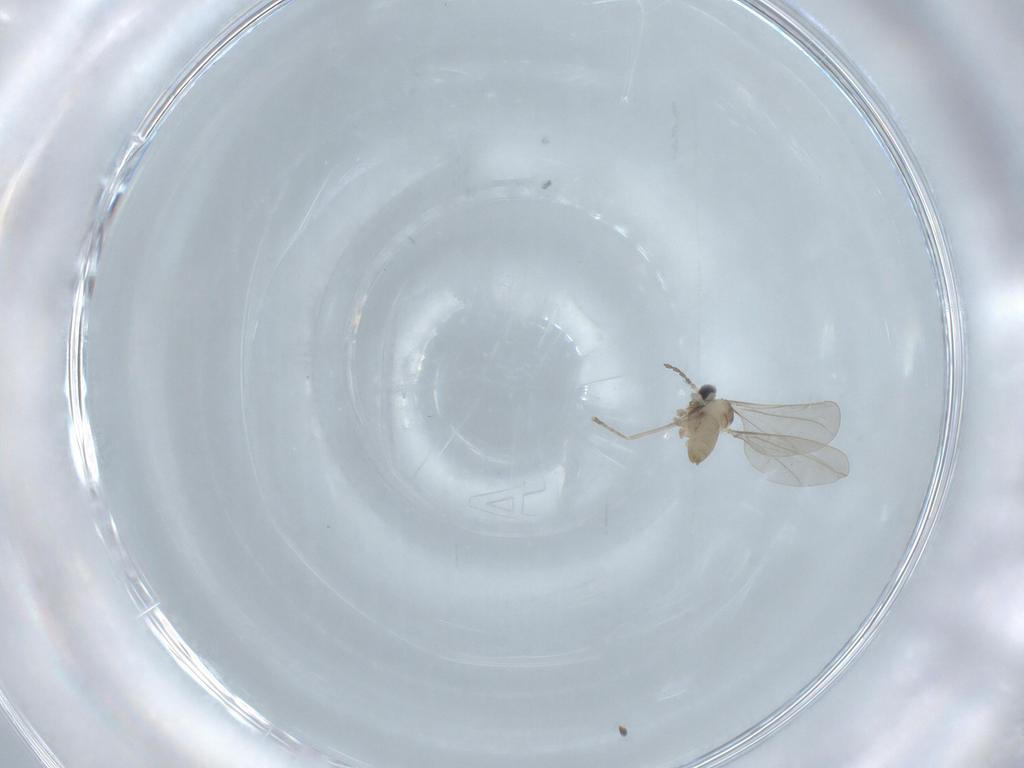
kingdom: Animalia
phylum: Arthropoda
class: Insecta
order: Diptera
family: Cecidomyiidae
